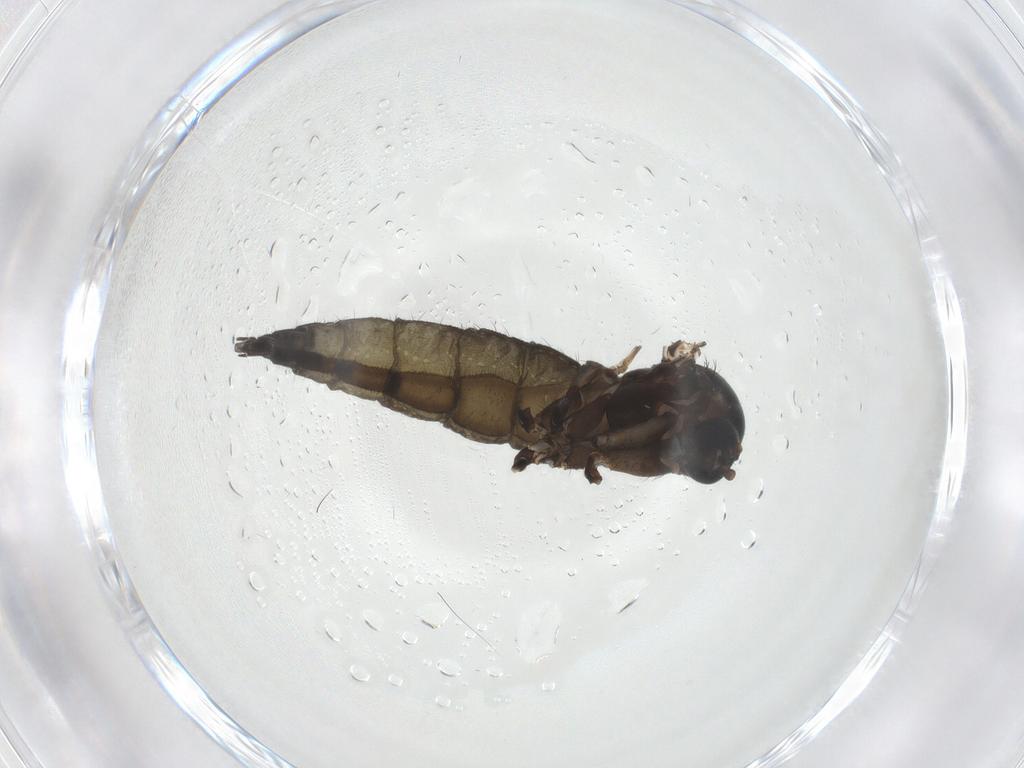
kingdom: Animalia
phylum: Arthropoda
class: Insecta
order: Diptera
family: Sciaridae
